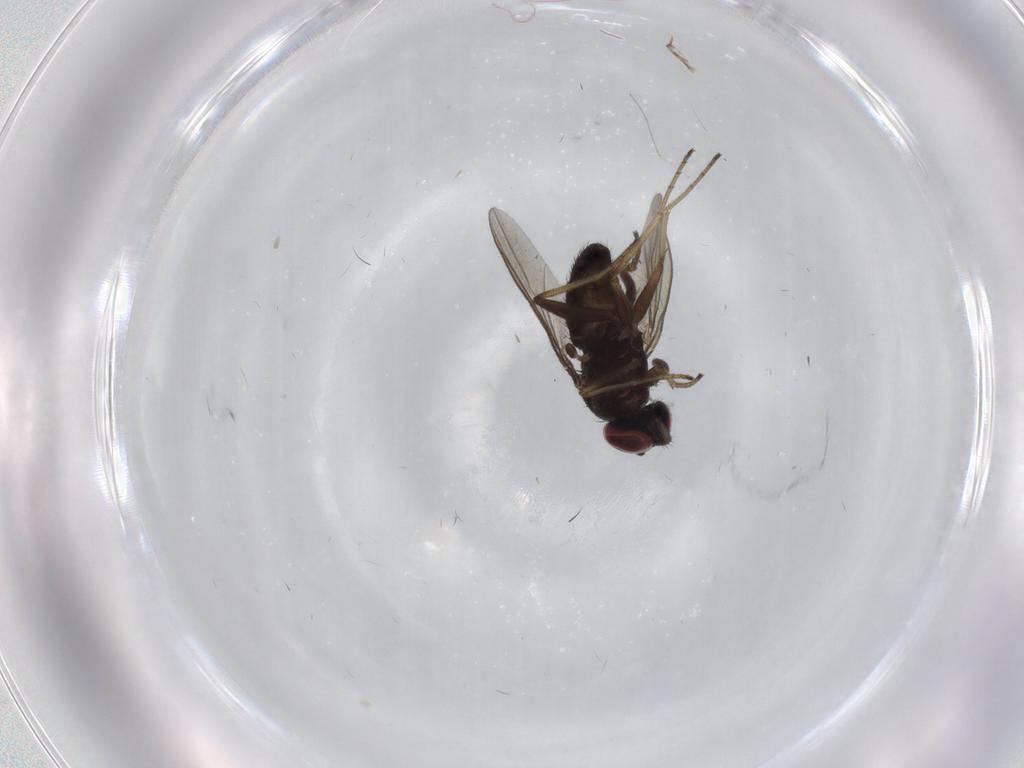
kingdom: Animalia
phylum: Arthropoda
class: Insecta
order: Diptera
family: Dolichopodidae
